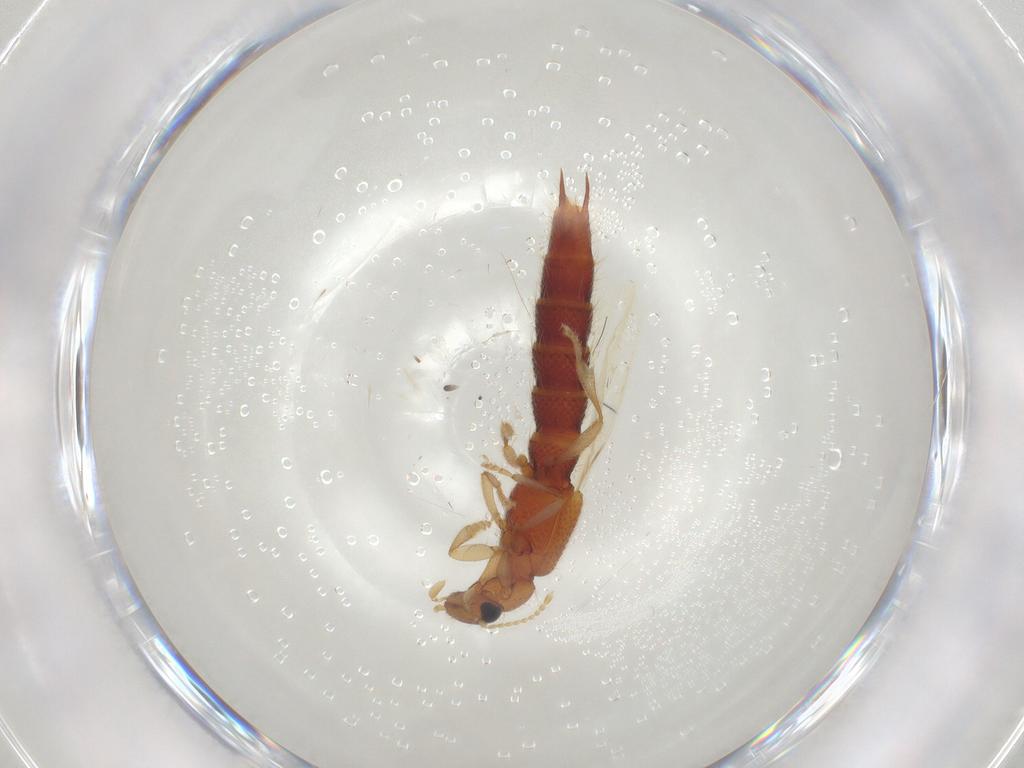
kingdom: Animalia
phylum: Arthropoda
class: Insecta
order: Coleoptera
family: Staphylinidae
